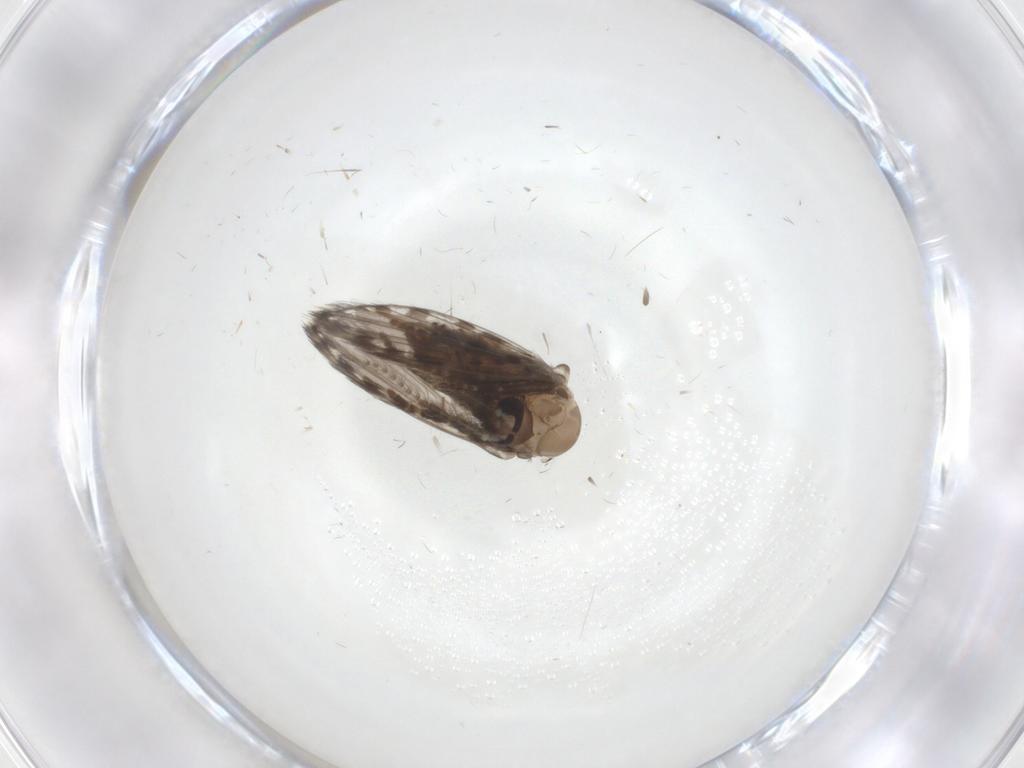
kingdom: Animalia
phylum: Arthropoda
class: Insecta
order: Diptera
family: Psychodidae
